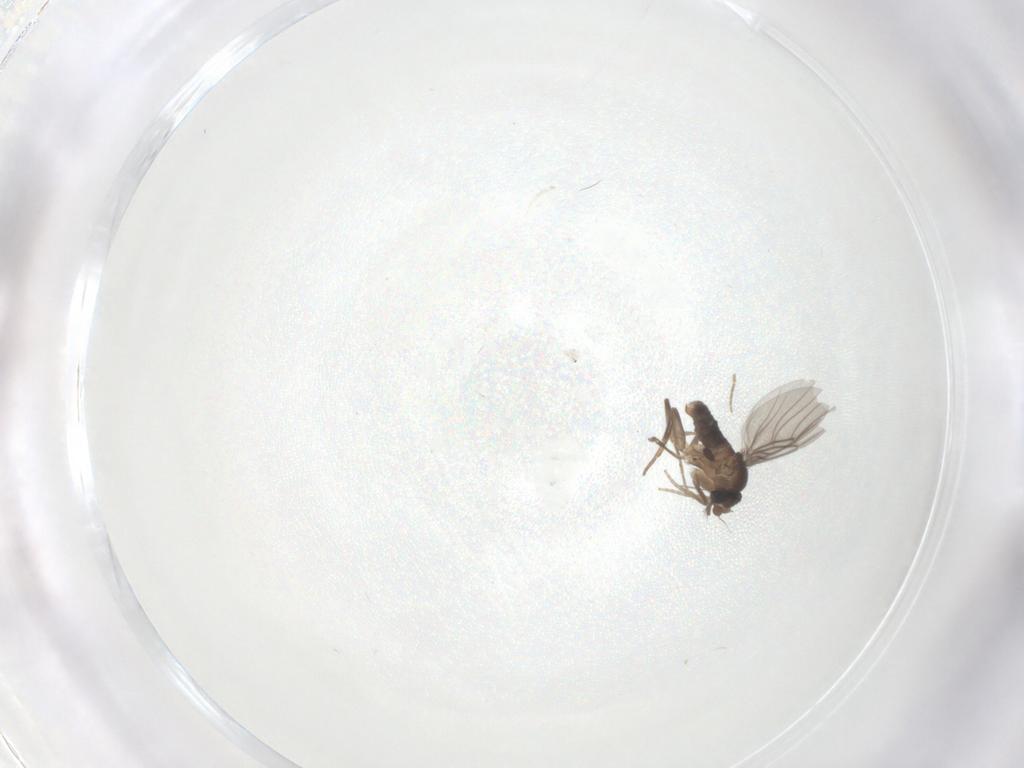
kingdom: Animalia
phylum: Arthropoda
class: Insecta
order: Diptera
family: Phoridae
